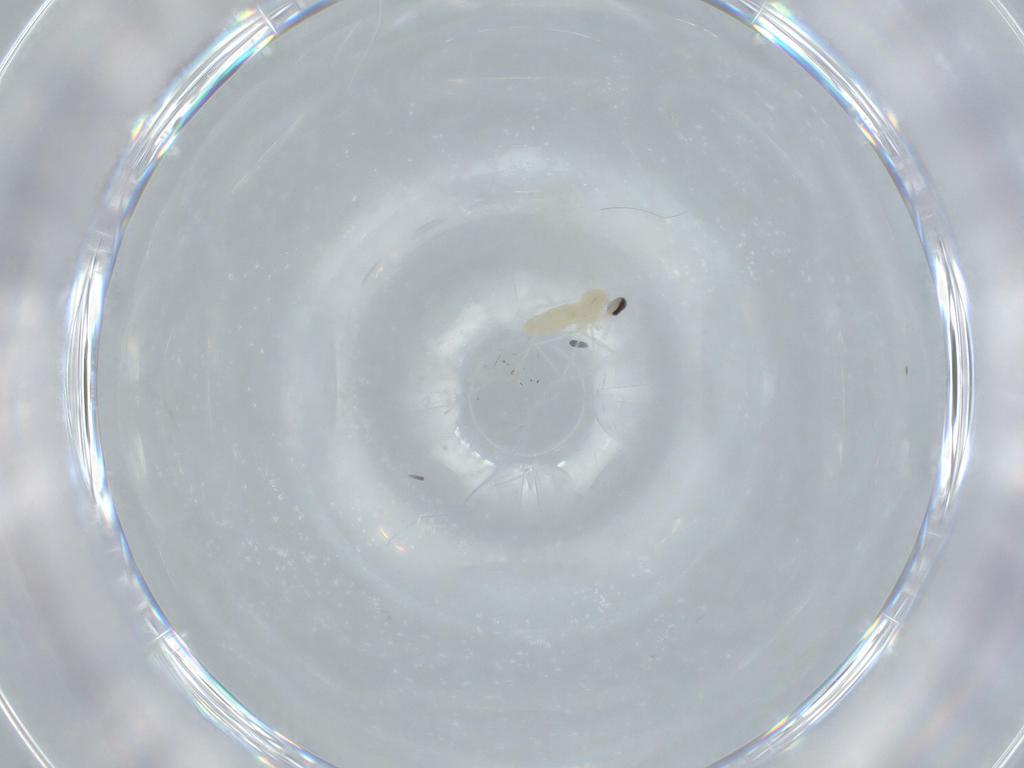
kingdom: Animalia
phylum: Arthropoda
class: Insecta
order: Diptera
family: Cecidomyiidae
